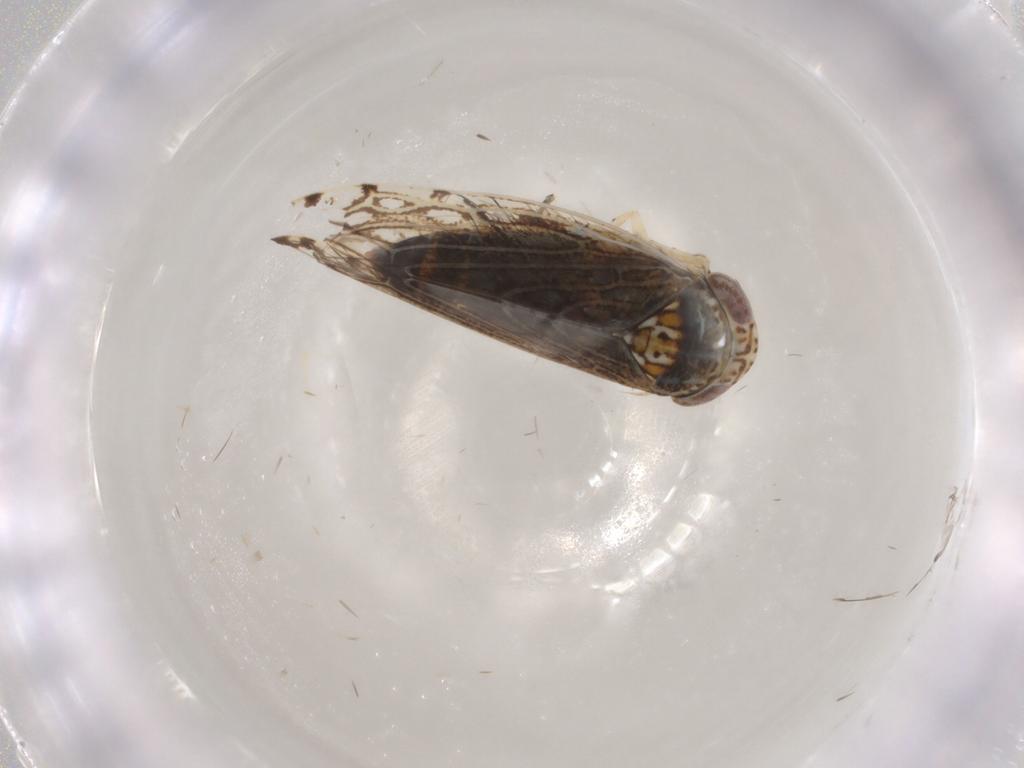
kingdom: Animalia
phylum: Arthropoda
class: Insecta
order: Hemiptera
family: Cicadellidae
